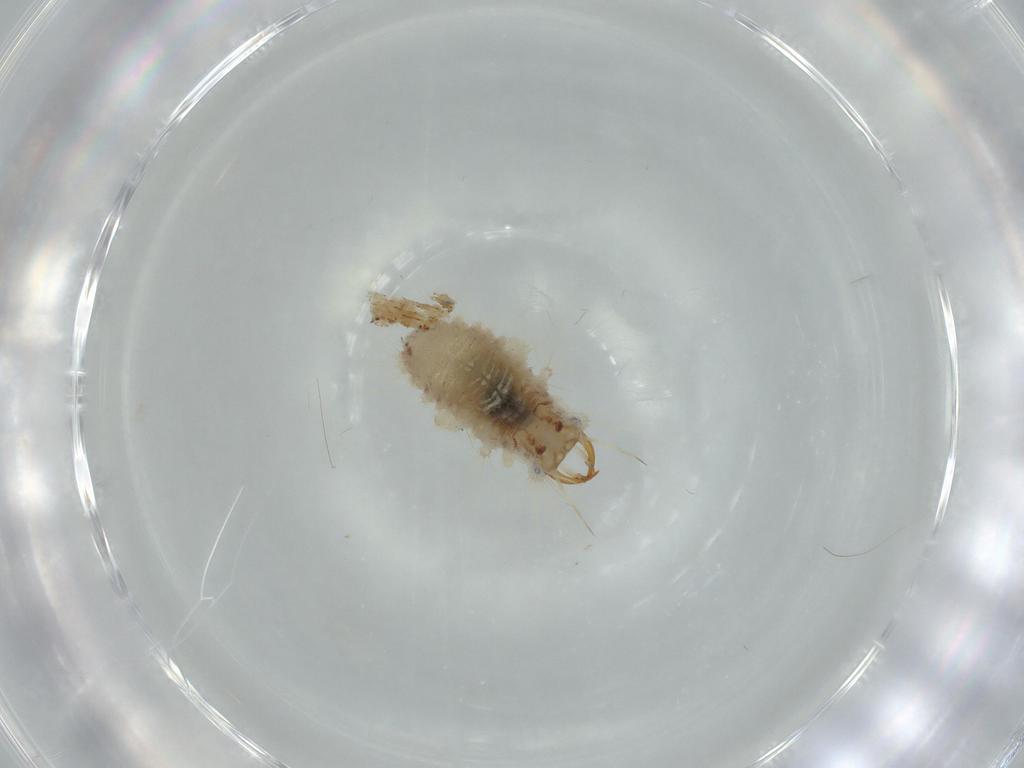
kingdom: Animalia
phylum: Arthropoda
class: Insecta
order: Neuroptera
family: Chrysopidae
